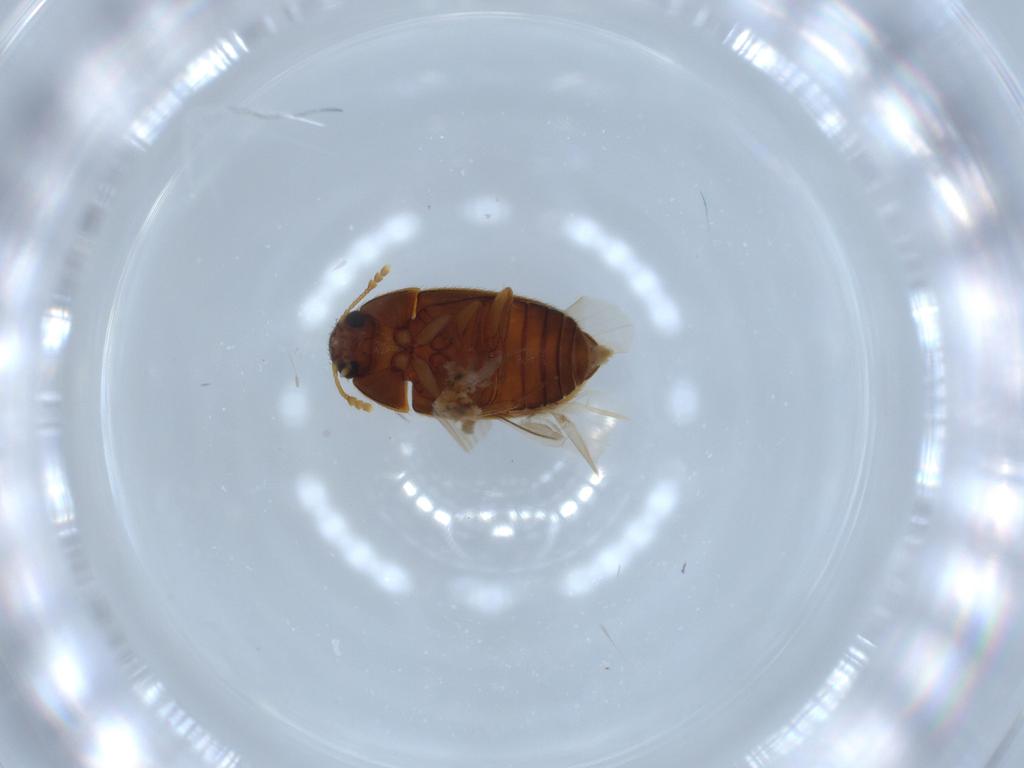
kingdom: Animalia
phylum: Arthropoda
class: Insecta
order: Coleoptera
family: Mycetophagidae
